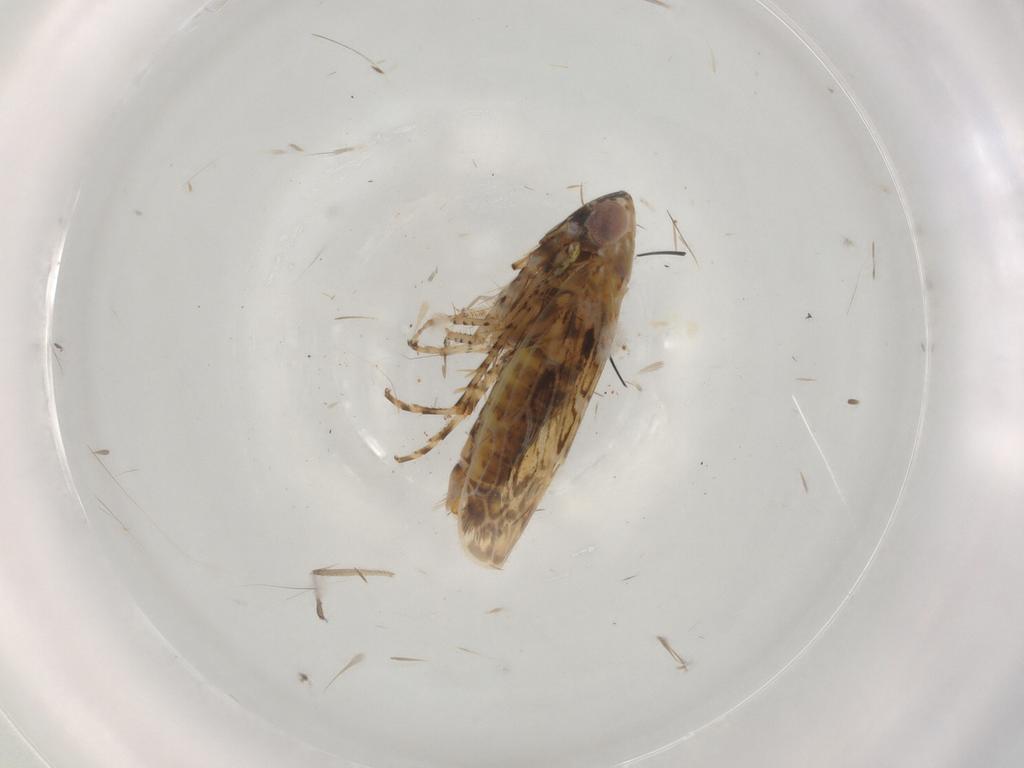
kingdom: Animalia
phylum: Arthropoda
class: Insecta
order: Hemiptera
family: Cicadellidae
